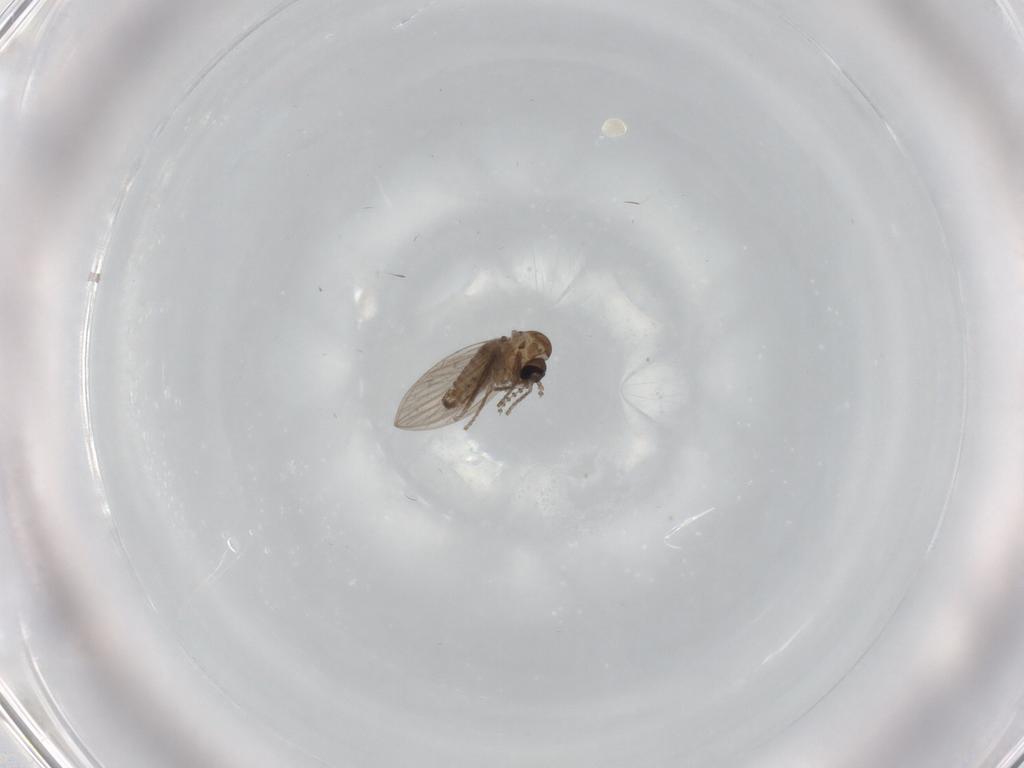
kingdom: Animalia
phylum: Arthropoda
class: Insecta
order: Diptera
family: Psychodidae
